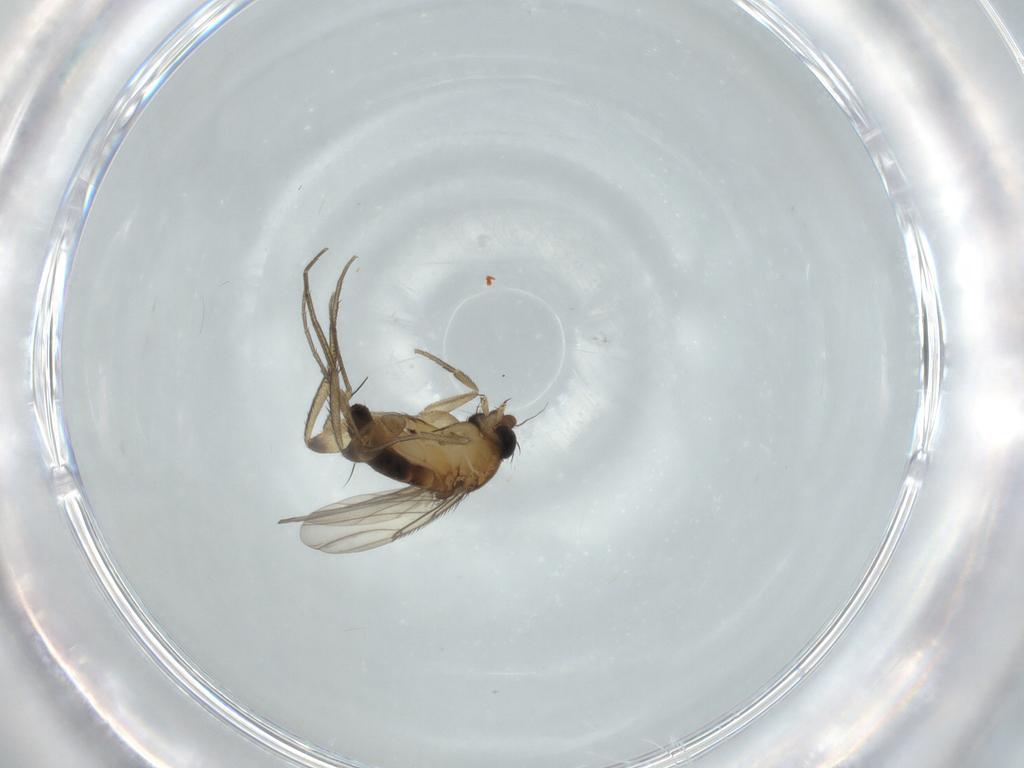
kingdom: Animalia
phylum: Arthropoda
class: Insecta
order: Diptera
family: Phoridae
